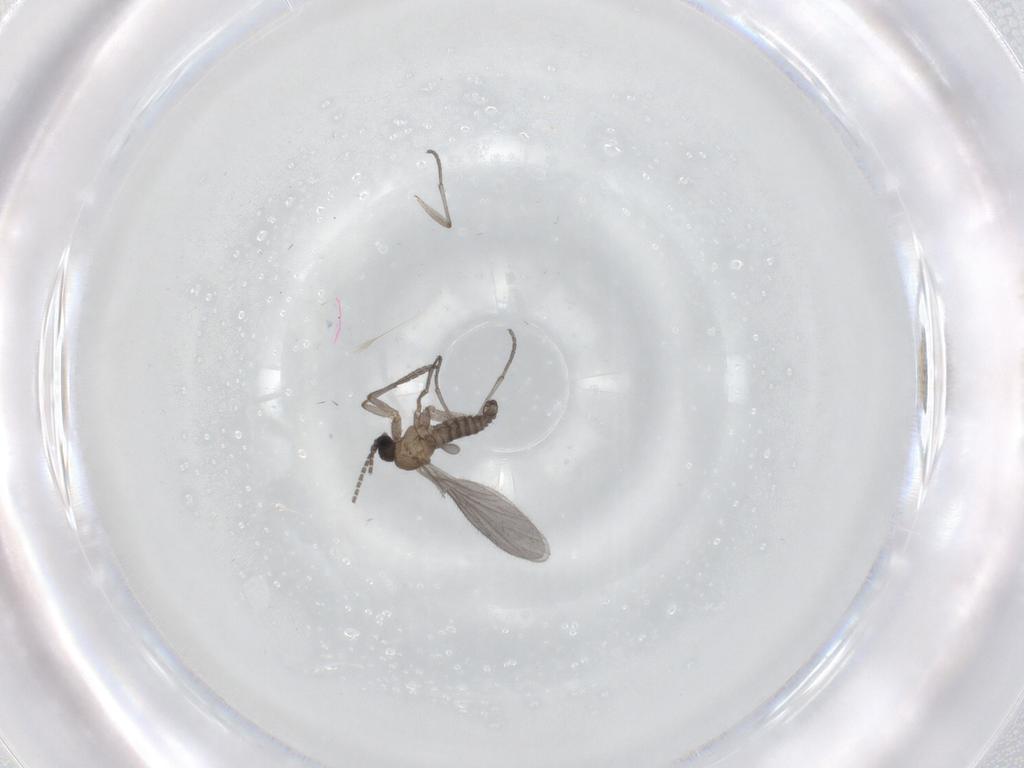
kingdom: Animalia
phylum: Arthropoda
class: Insecta
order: Diptera
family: Sciaridae
